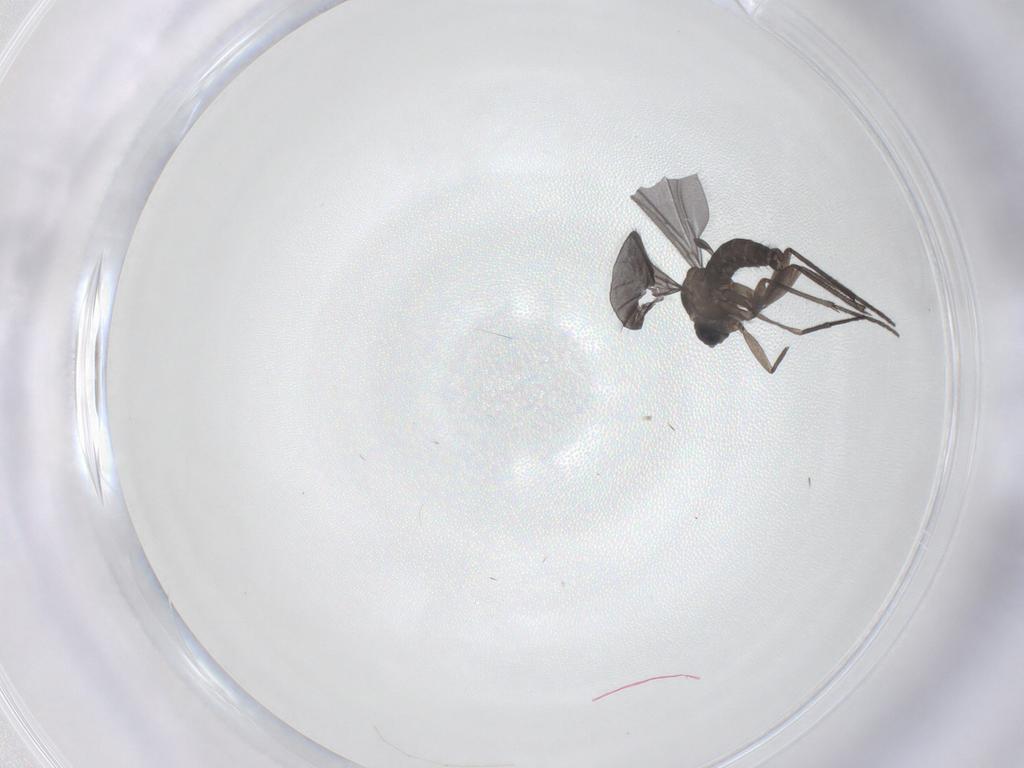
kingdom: Animalia
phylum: Arthropoda
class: Insecta
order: Diptera
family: Sciaridae
